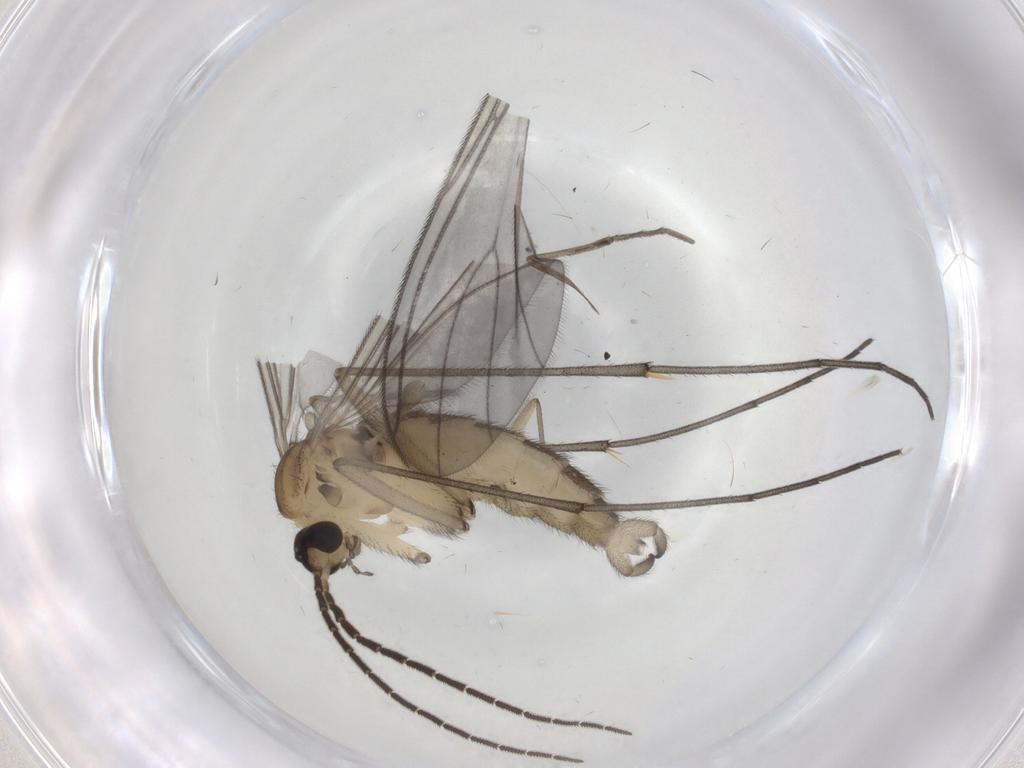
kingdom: Animalia
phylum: Arthropoda
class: Insecta
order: Diptera
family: Sciaridae
